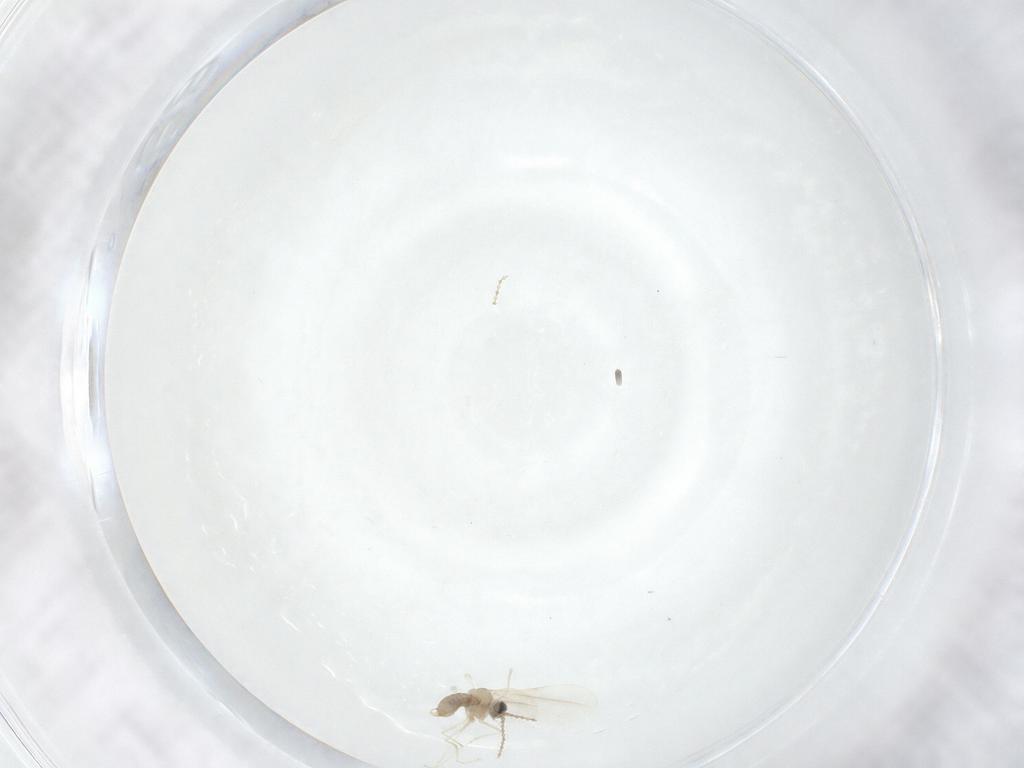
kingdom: Animalia
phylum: Arthropoda
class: Insecta
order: Diptera
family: Cecidomyiidae
